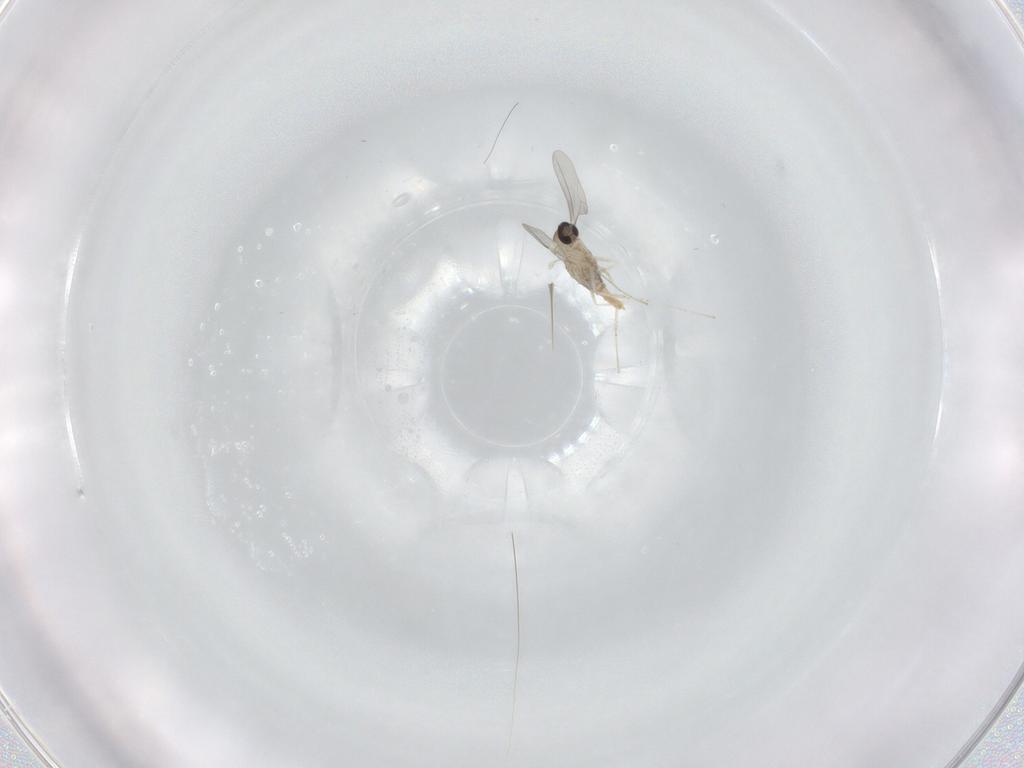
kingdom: Animalia
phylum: Arthropoda
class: Insecta
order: Diptera
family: Cecidomyiidae
